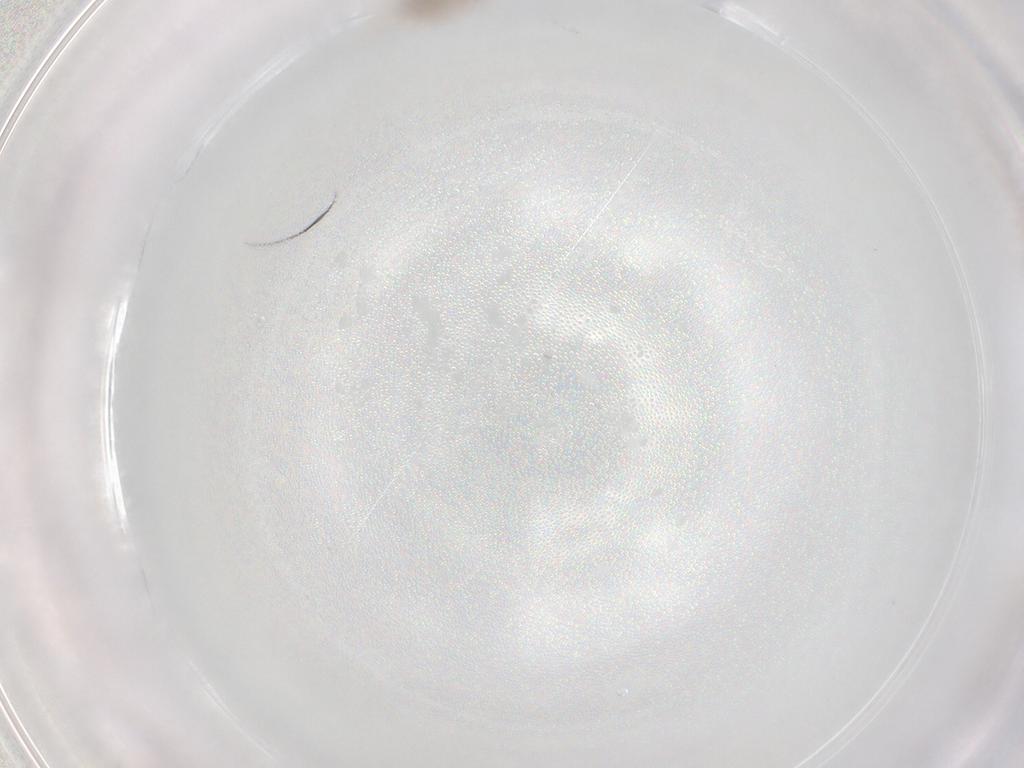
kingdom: Animalia
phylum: Arthropoda
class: Insecta
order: Hemiptera
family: Cicadellidae
